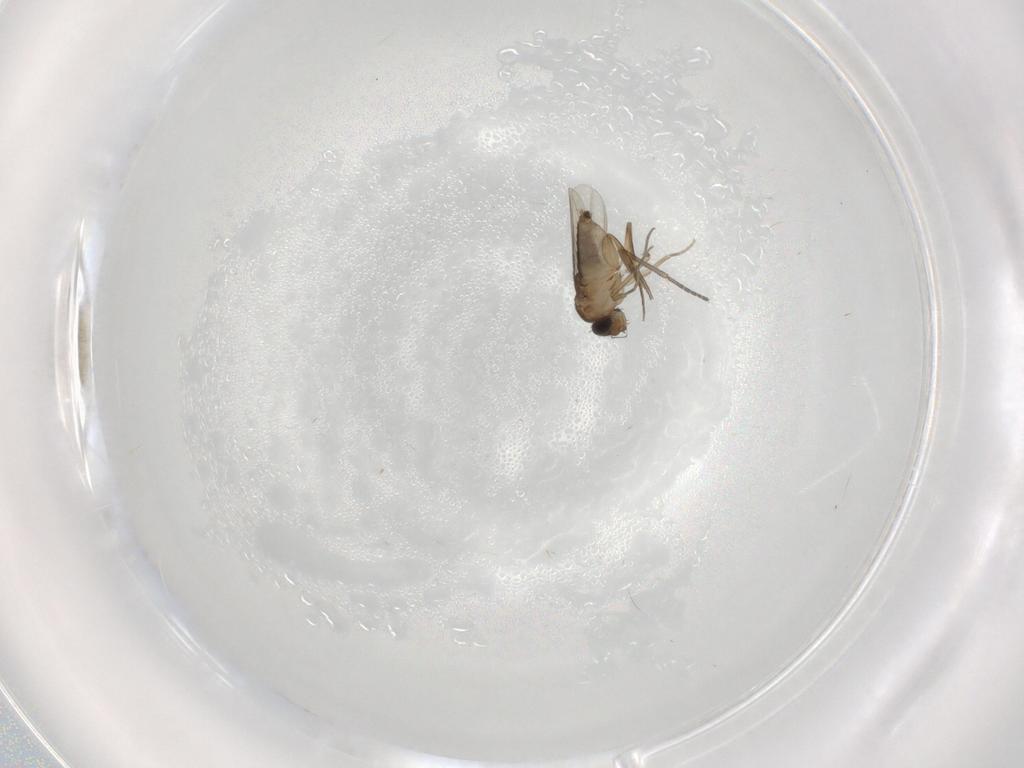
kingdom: Animalia
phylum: Arthropoda
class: Insecta
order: Diptera
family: Phoridae
